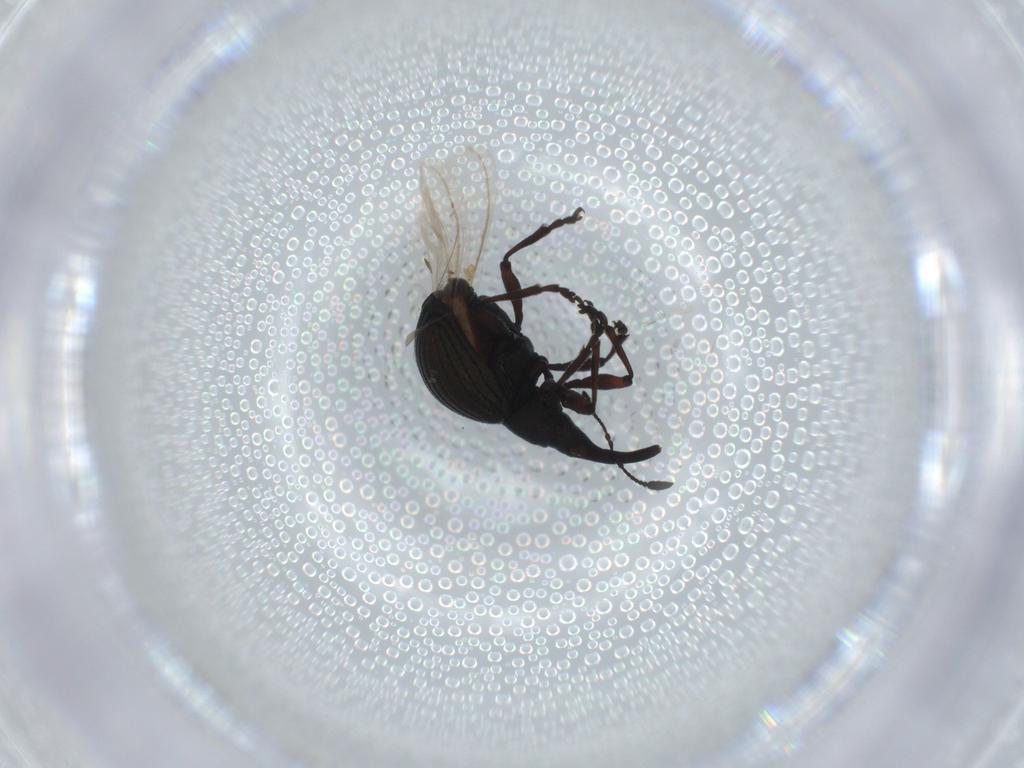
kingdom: Animalia
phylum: Arthropoda
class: Insecta
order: Coleoptera
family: Brentidae
